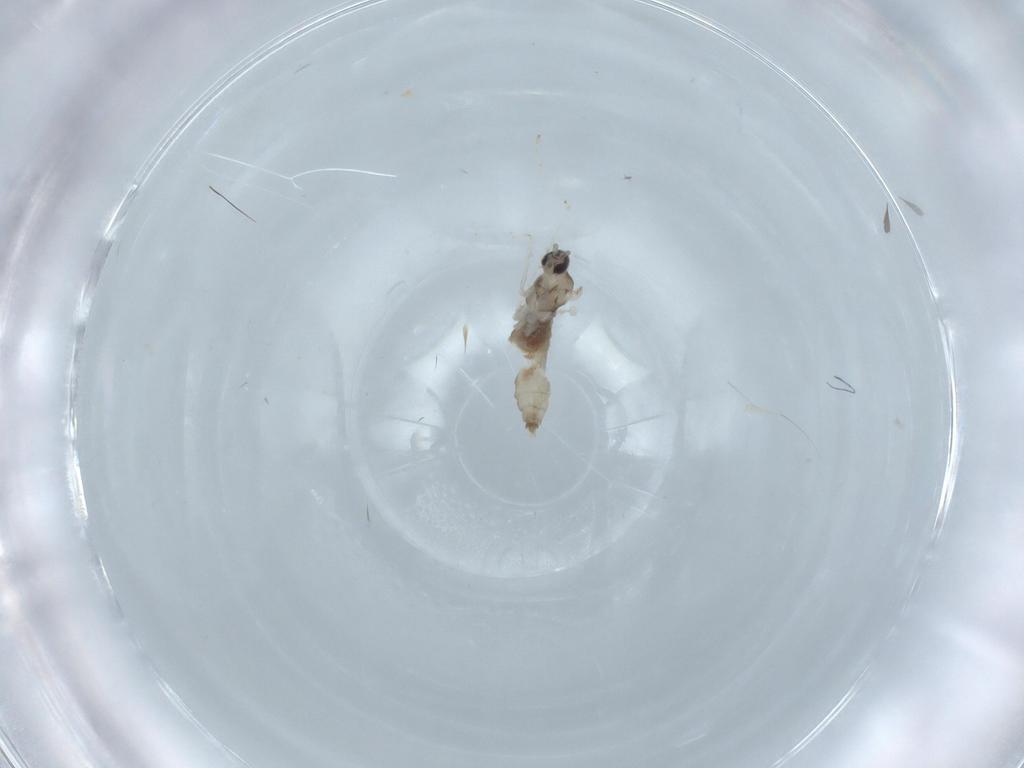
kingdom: Animalia
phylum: Arthropoda
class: Insecta
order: Diptera
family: Cecidomyiidae
